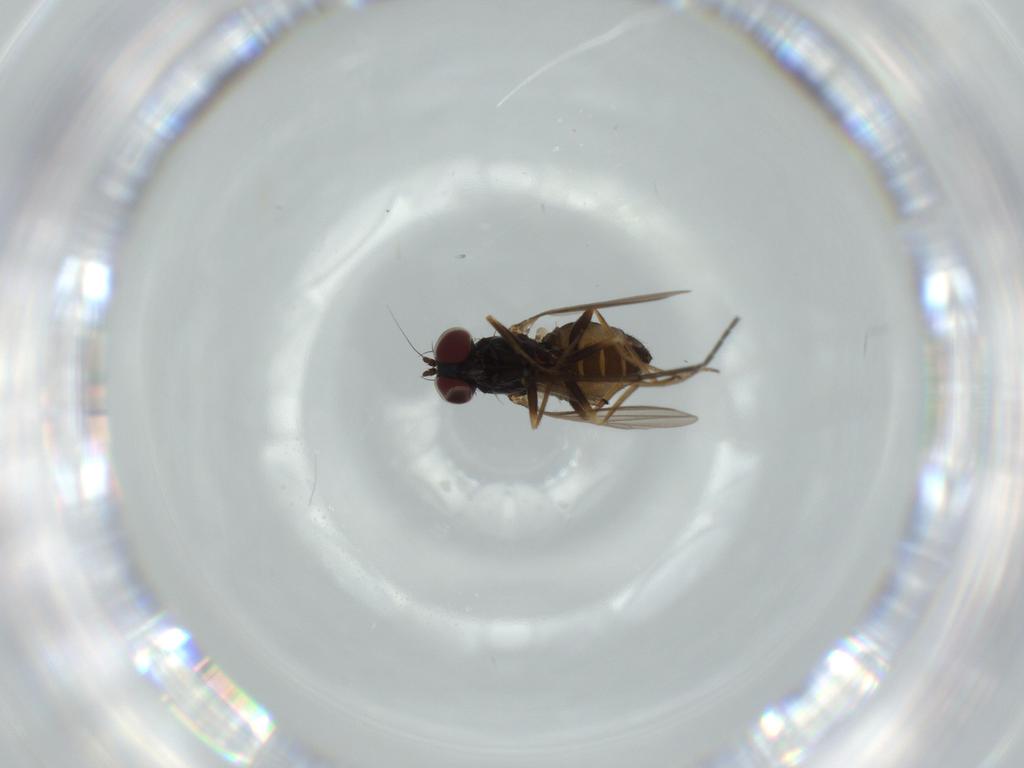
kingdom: Animalia
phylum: Arthropoda
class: Insecta
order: Diptera
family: Dolichopodidae
